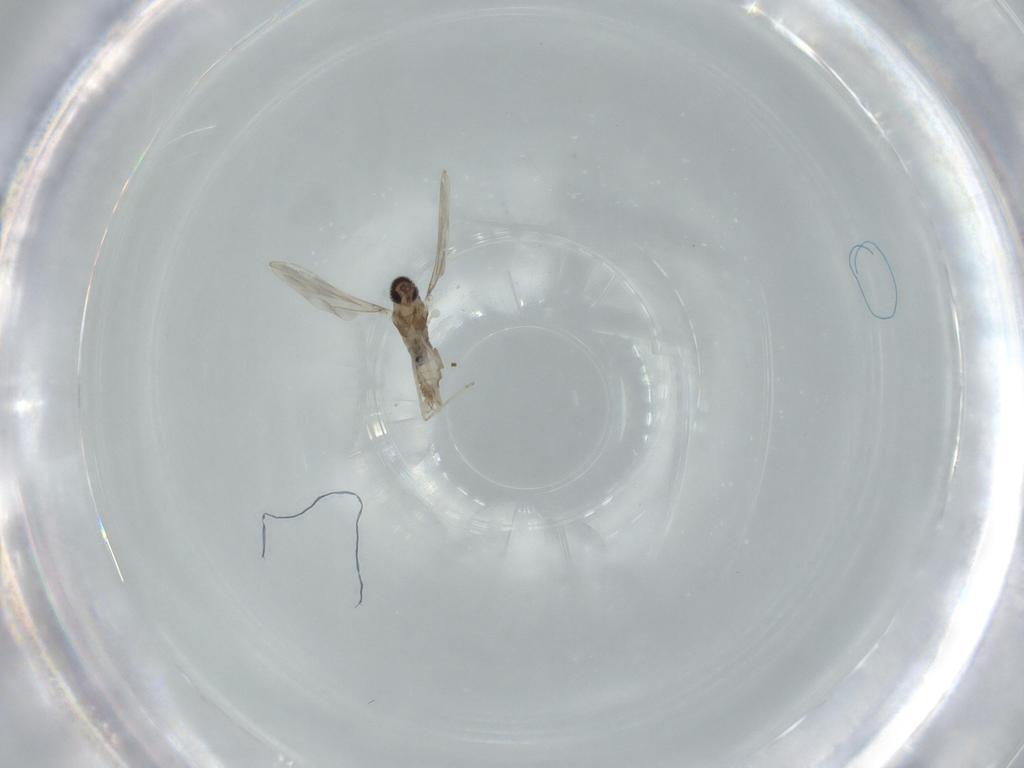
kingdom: Animalia
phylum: Arthropoda
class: Insecta
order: Diptera
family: Cecidomyiidae
